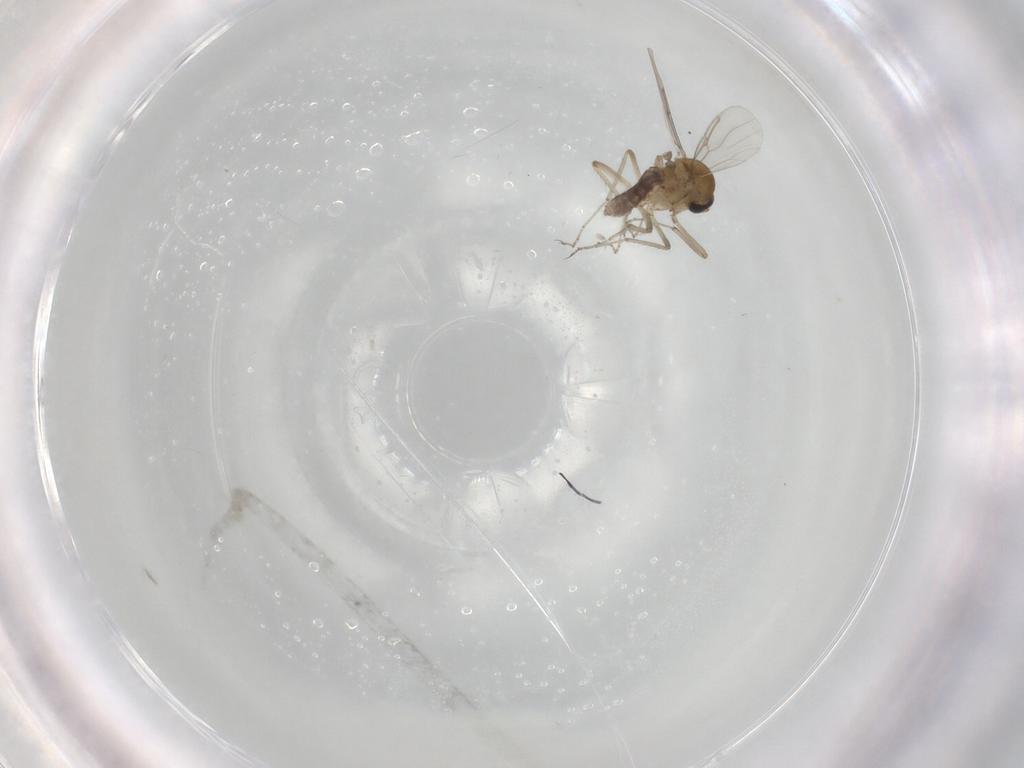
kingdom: Animalia
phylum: Arthropoda
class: Insecta
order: Diptera
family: Ceratopogonidae
